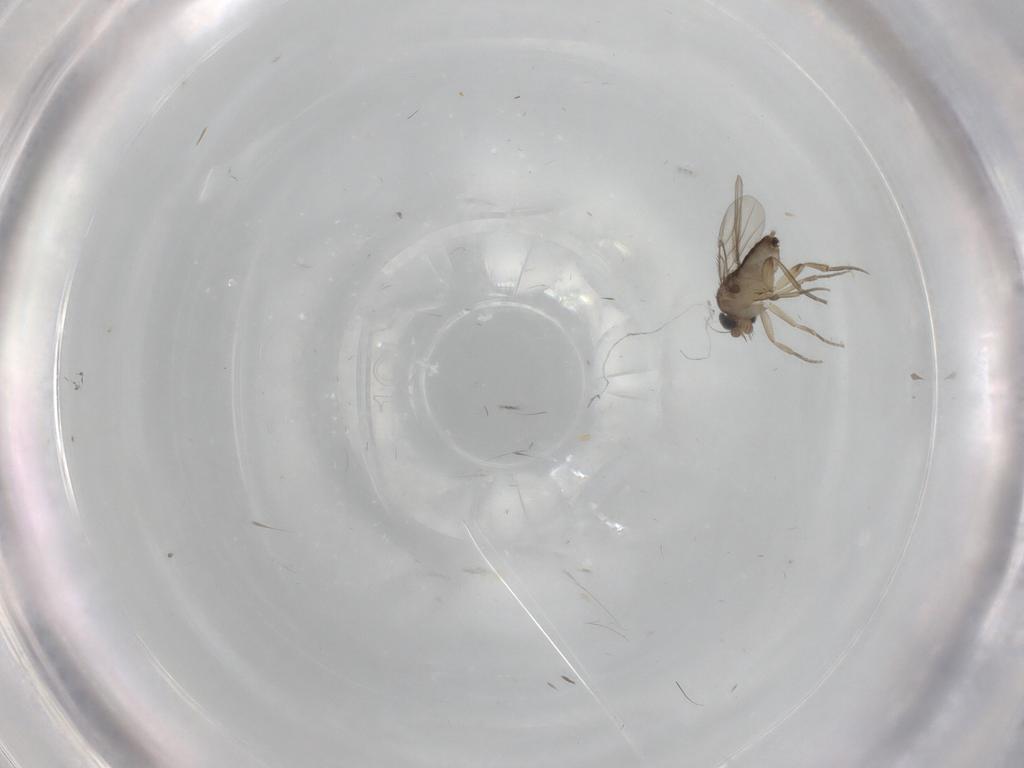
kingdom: Animalia
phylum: Arthropoda
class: Insecta
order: Diptera
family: Phoridae
